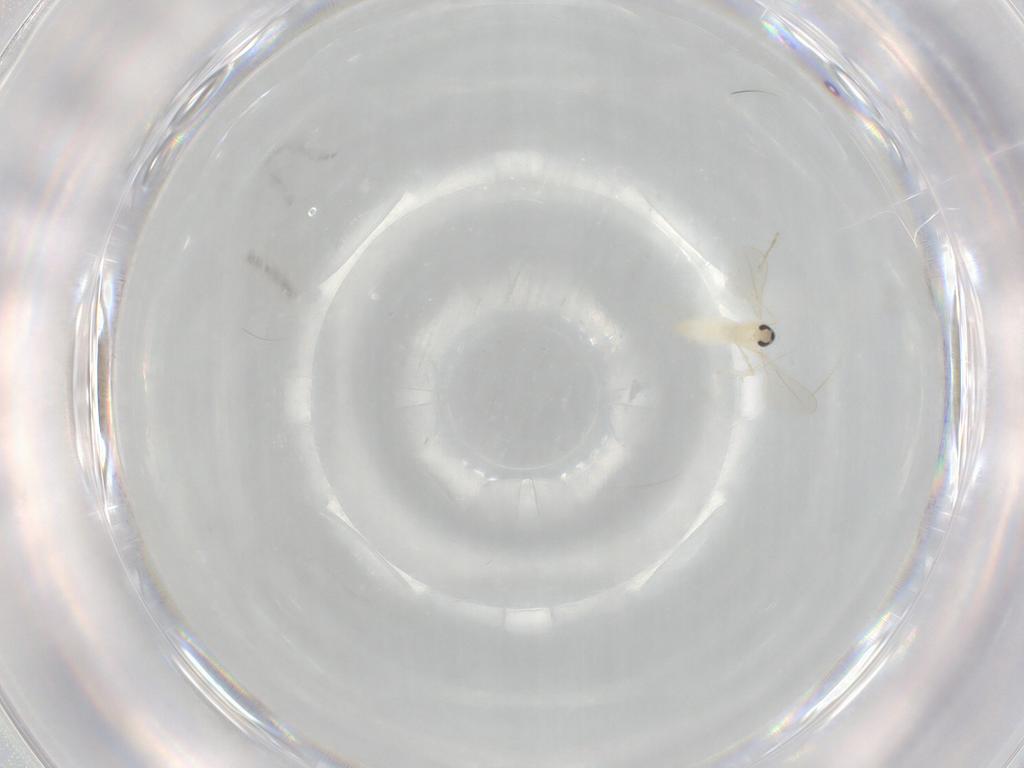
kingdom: Animalia
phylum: Arthropoda
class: Insecta
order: Diptera
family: Cecidomyiidae
